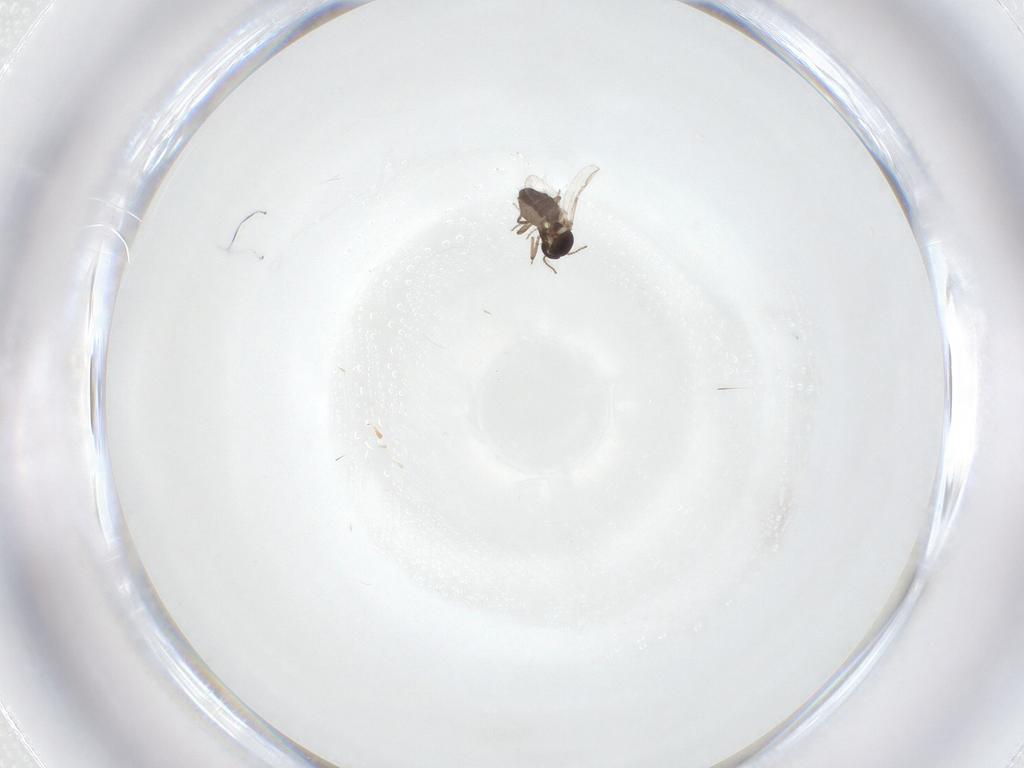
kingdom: Animalia
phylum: Arthropoda
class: Insecta
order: Diptera
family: Ceratopogonidae
